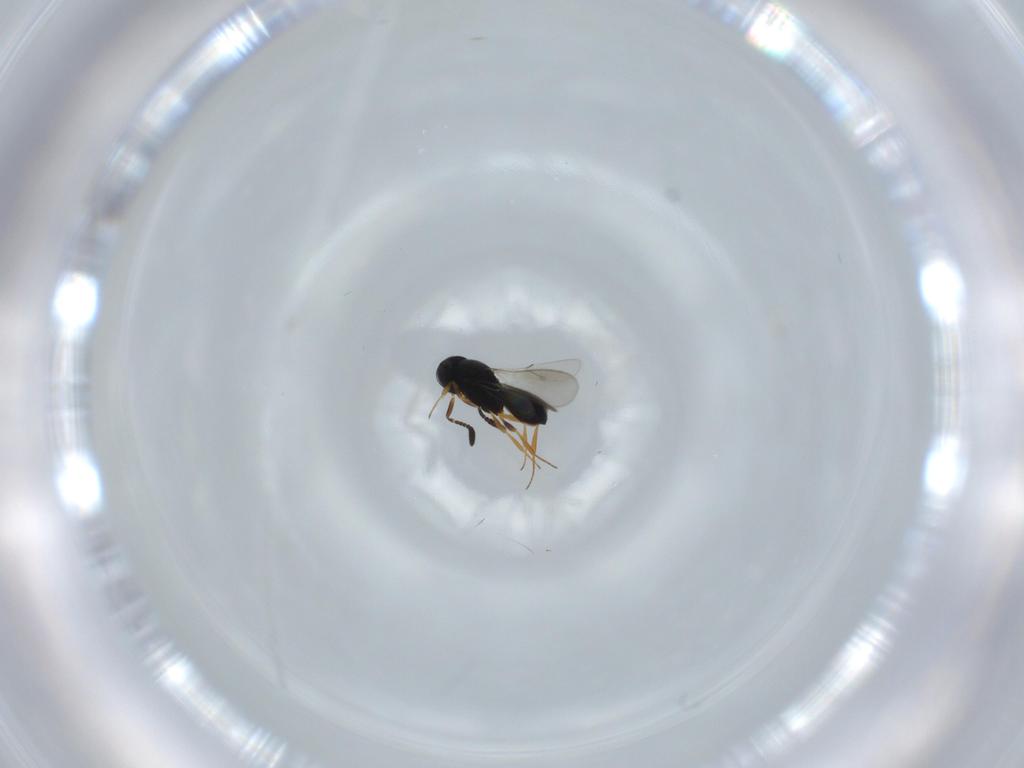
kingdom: Animalia
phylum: Arthropoda
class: Insecta
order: Hymenoptera
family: Scelionidae
